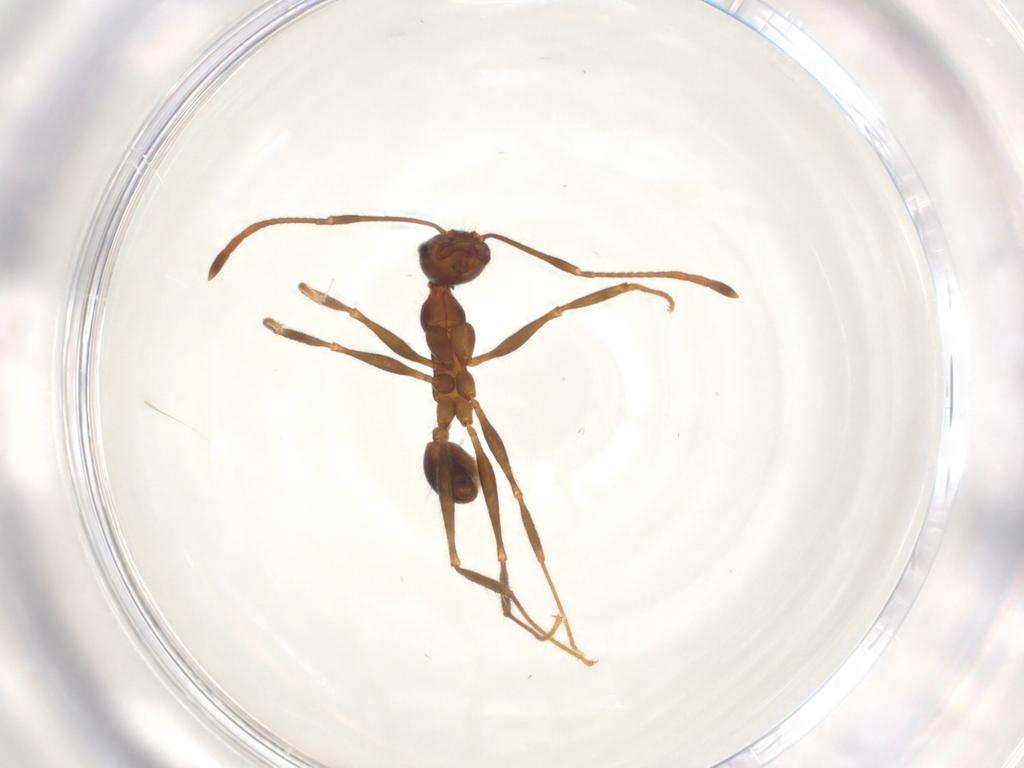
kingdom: Animalia
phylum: Arthropoda
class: Insecta
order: Hymenoptera
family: Formicidae
